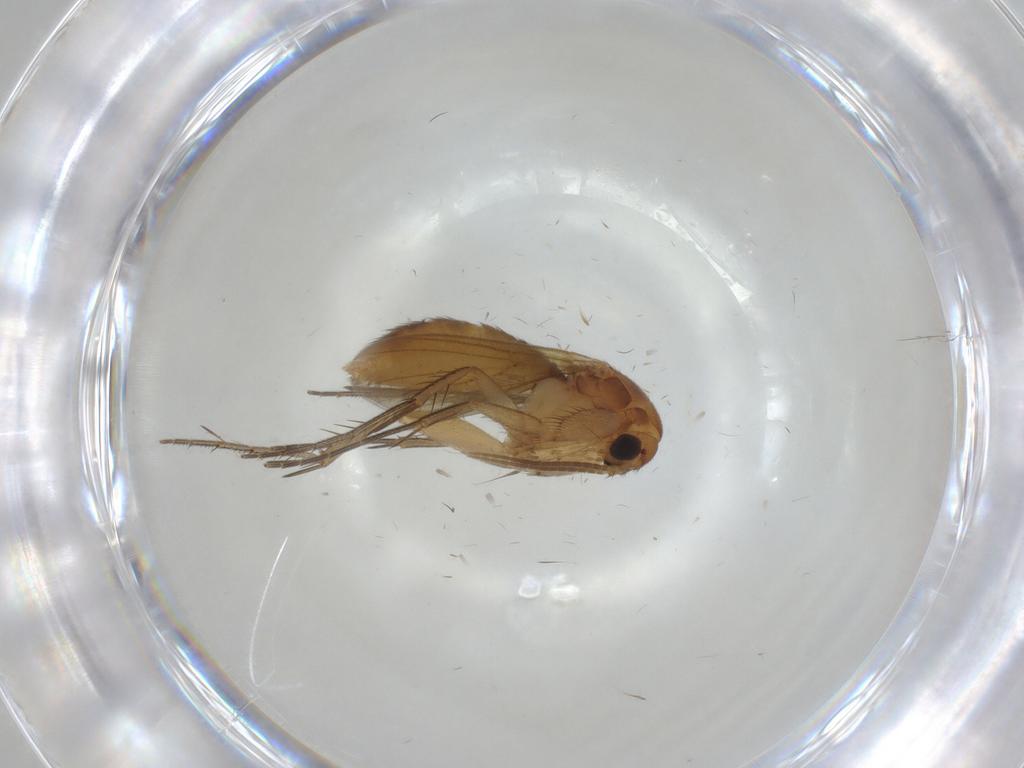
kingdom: Animalia
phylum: Arthropoda
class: Insecta
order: Diptera
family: Mycetophilidae
